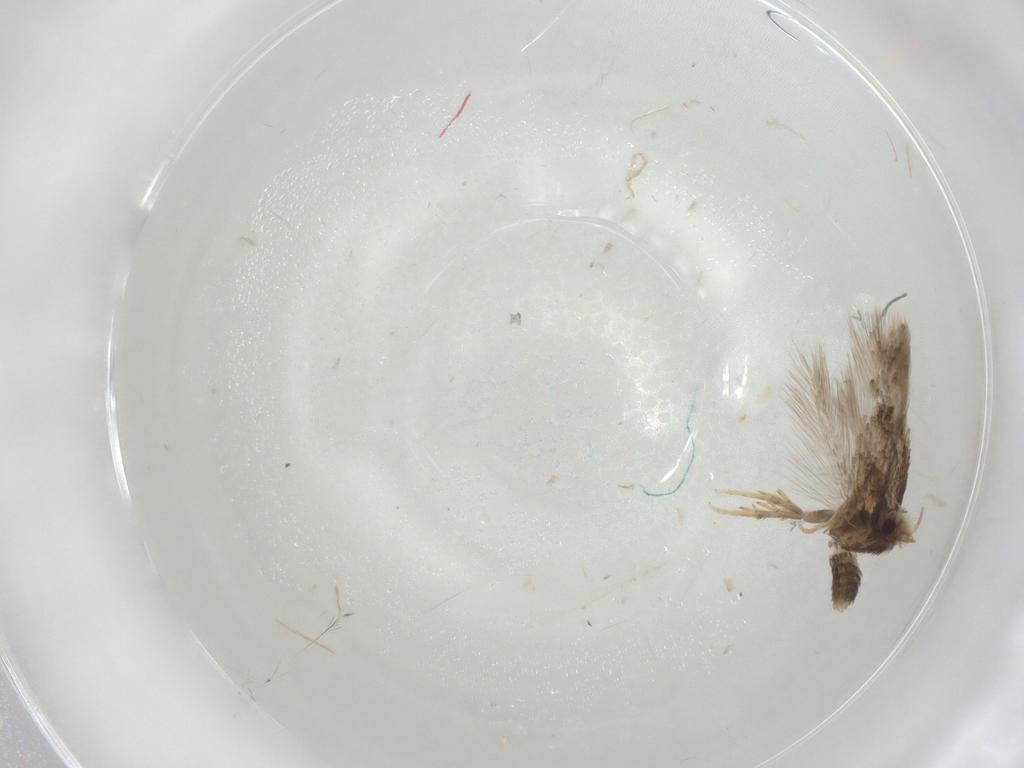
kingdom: Animalia
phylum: Arthropoda
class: Insecta
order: Lepidoptera
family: Nepticulidae
